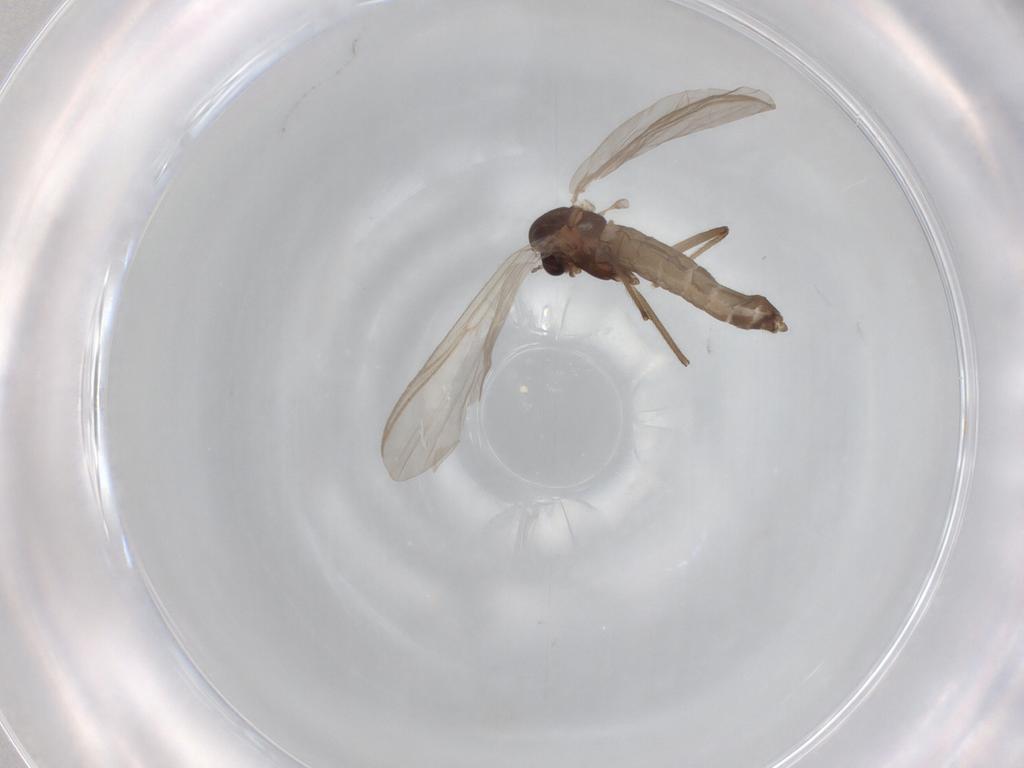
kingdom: Animalia
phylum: Arthropoda
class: Insecta
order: Diptera
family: Chironomidae
